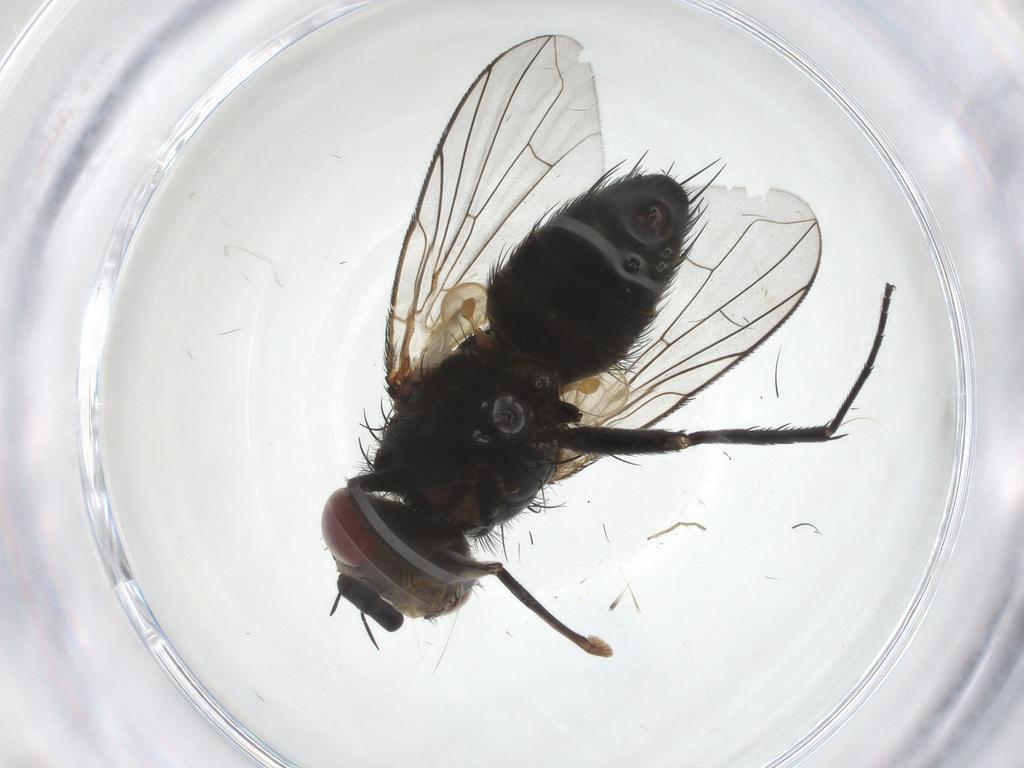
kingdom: Animalia
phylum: Arthropoda
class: Insecta
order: Diptera
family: Tachinidae
